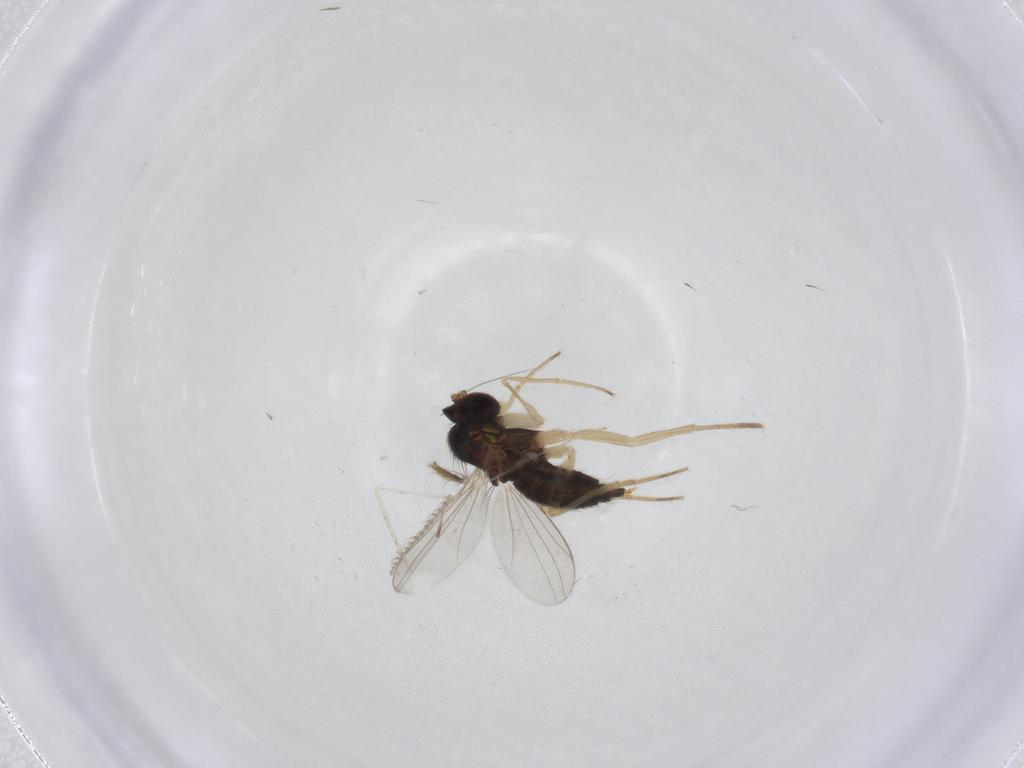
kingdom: Animalia
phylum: Arthropoda
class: Insecta
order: Diptera
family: Dolichopodidae
